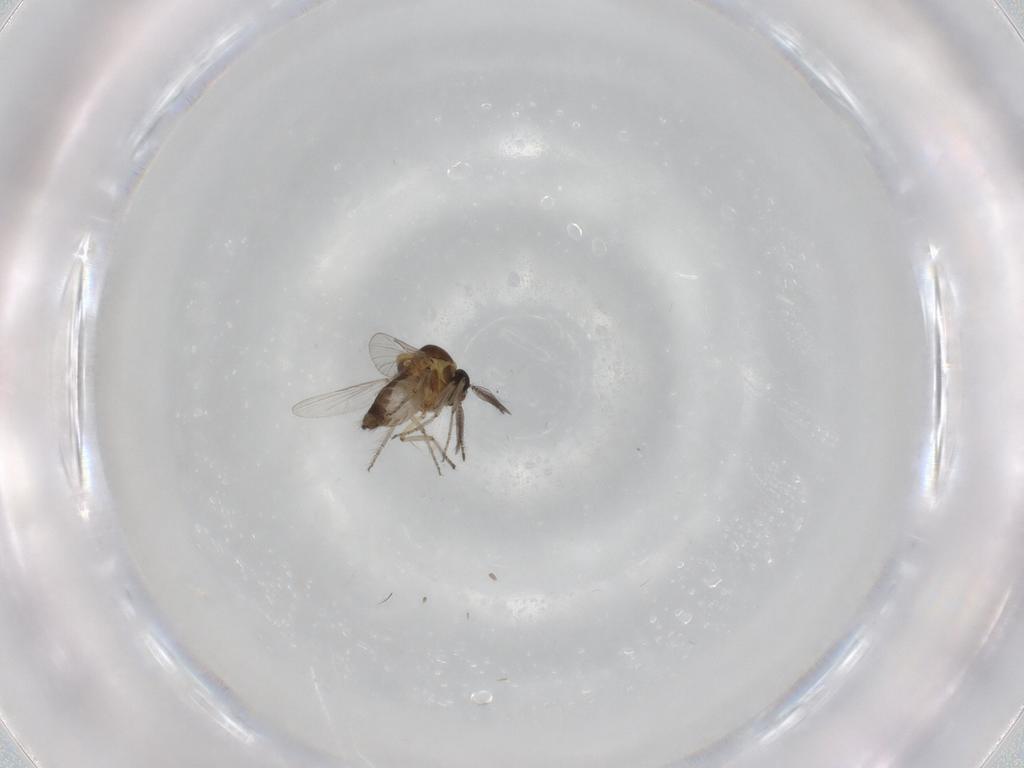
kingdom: Animalia
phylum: Arthropoda
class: Insecta
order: Diptera
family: Ceratopogonidae
